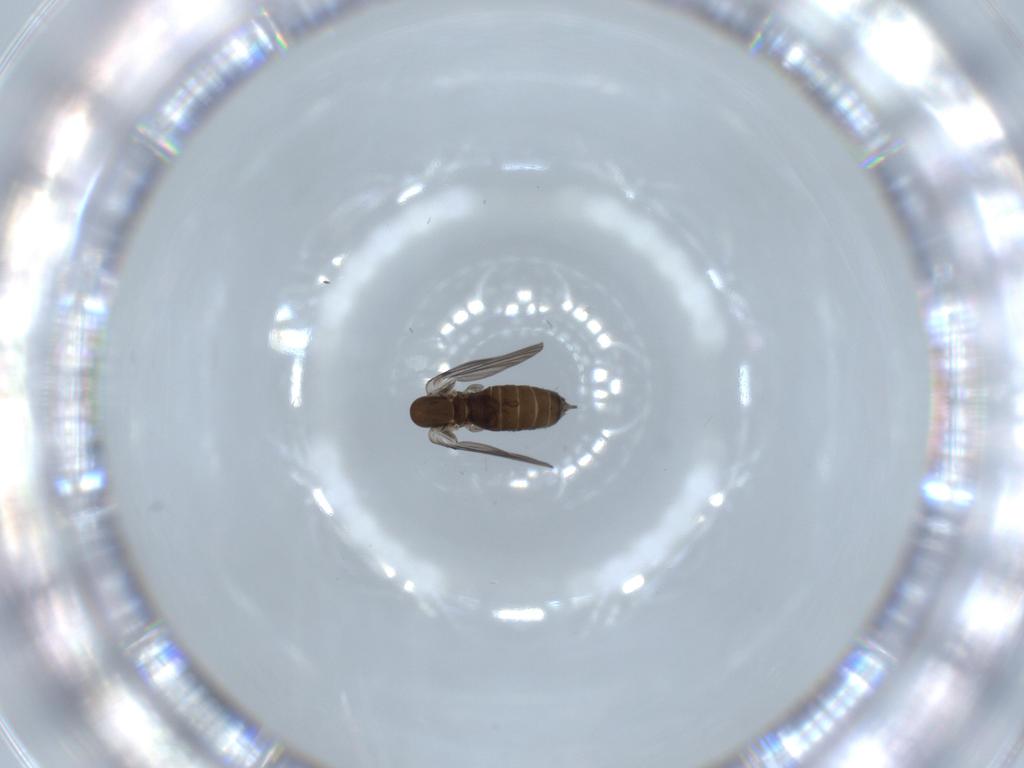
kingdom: Animalia
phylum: Arthropoda
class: Insecta
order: Diptera
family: Psychodidae
